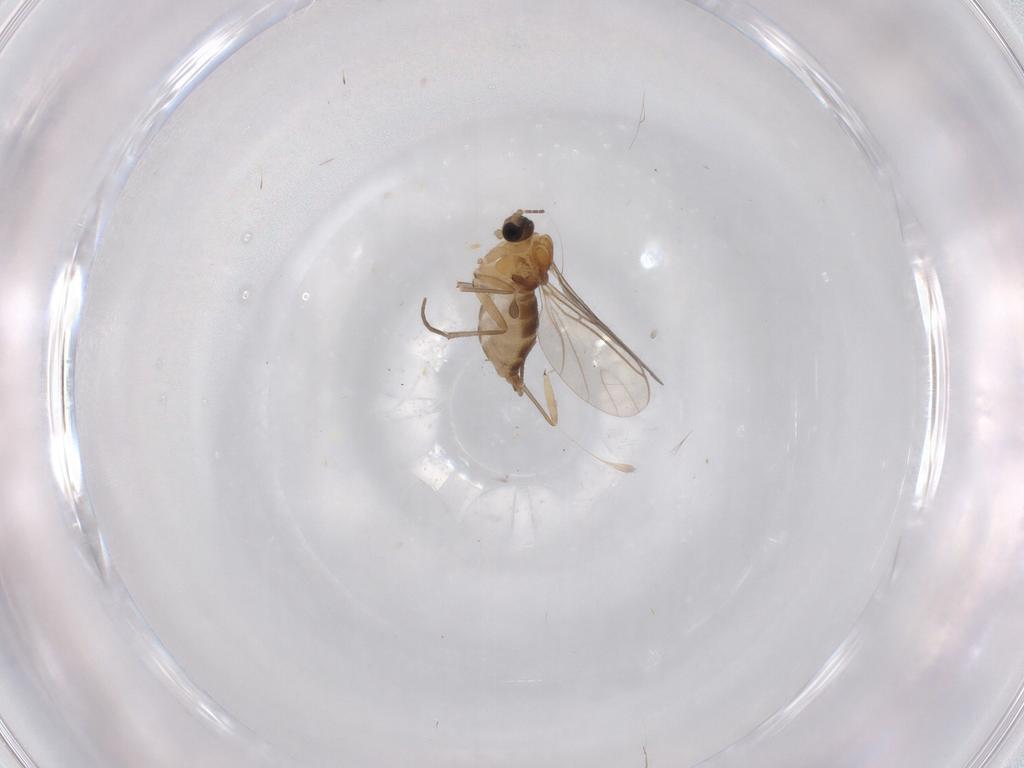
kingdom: Animalia
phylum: Arthropoda
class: Insecta
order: Diptera
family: Sciaridae
